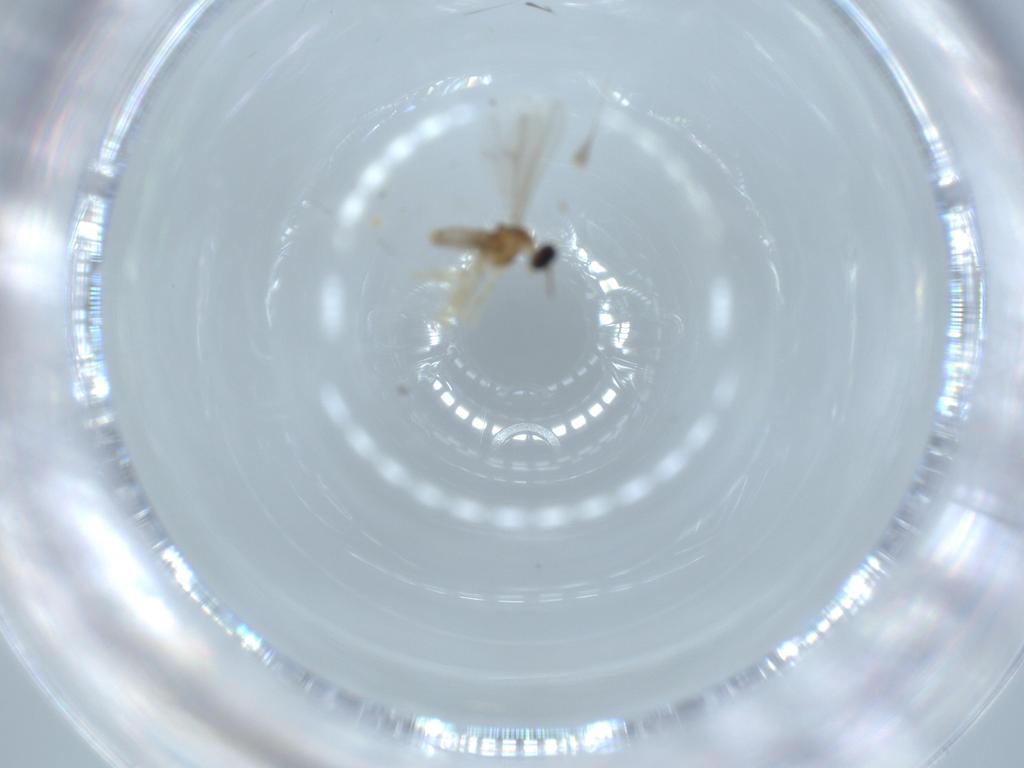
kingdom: Animalia
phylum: Arthropoda
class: Insecta
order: Diptera
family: Cecidomyiidae
